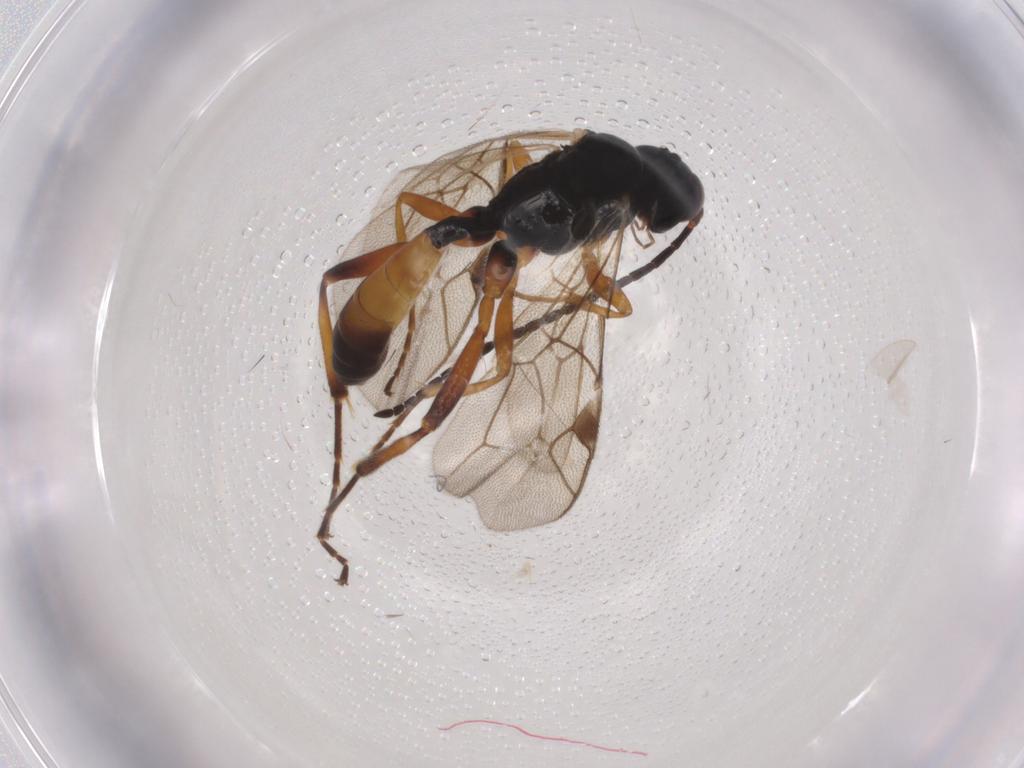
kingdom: Animalia
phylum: Arthropoda
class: Insecta
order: Hymenoptera
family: Ichneumonidae
